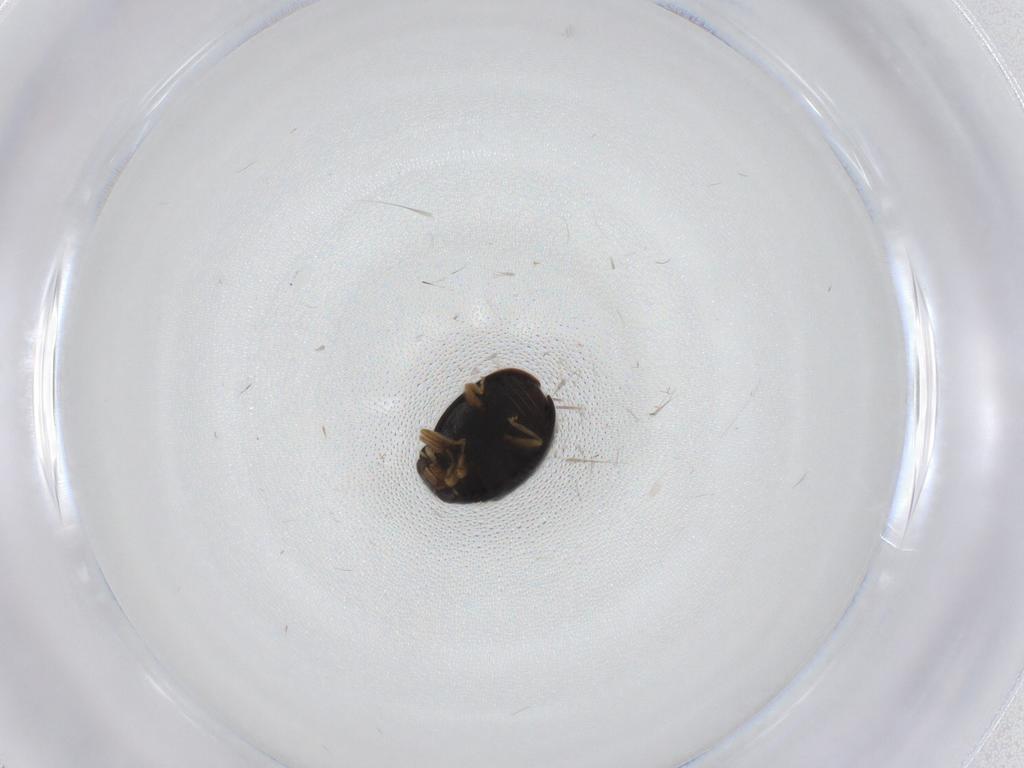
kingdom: Animalia
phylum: Arthropoda
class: Insecta
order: Coleoptera
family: Coccinellidae
